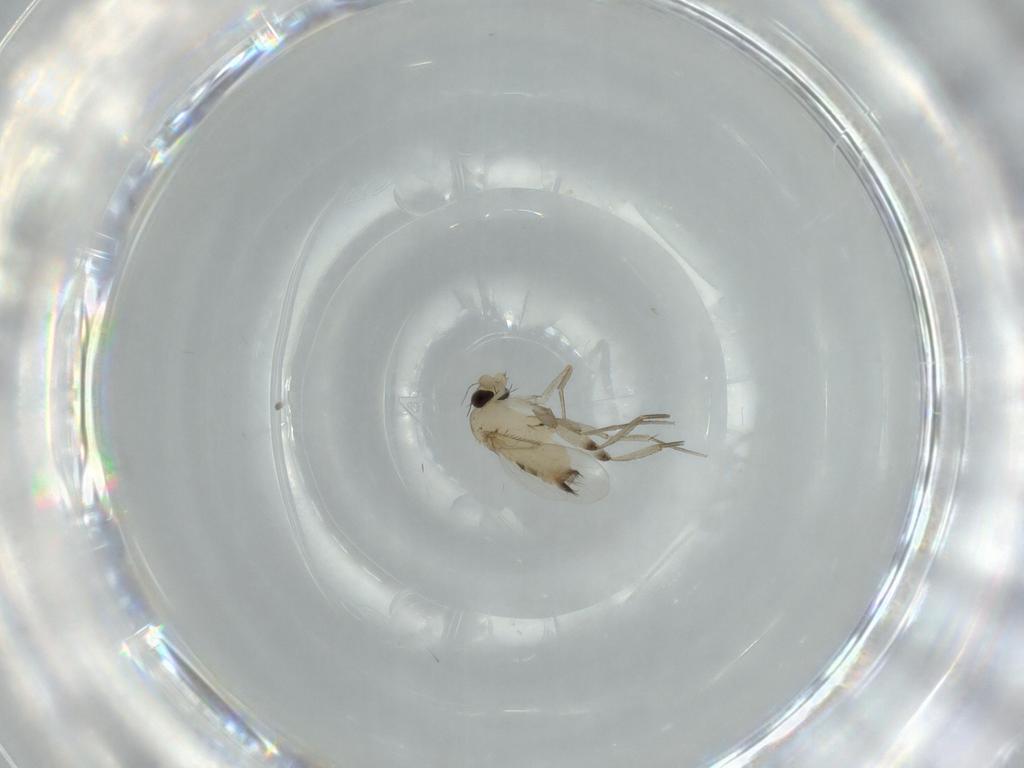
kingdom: Animalia
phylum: Arthropoda
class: Insecta
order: Diptera
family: Phoridae
